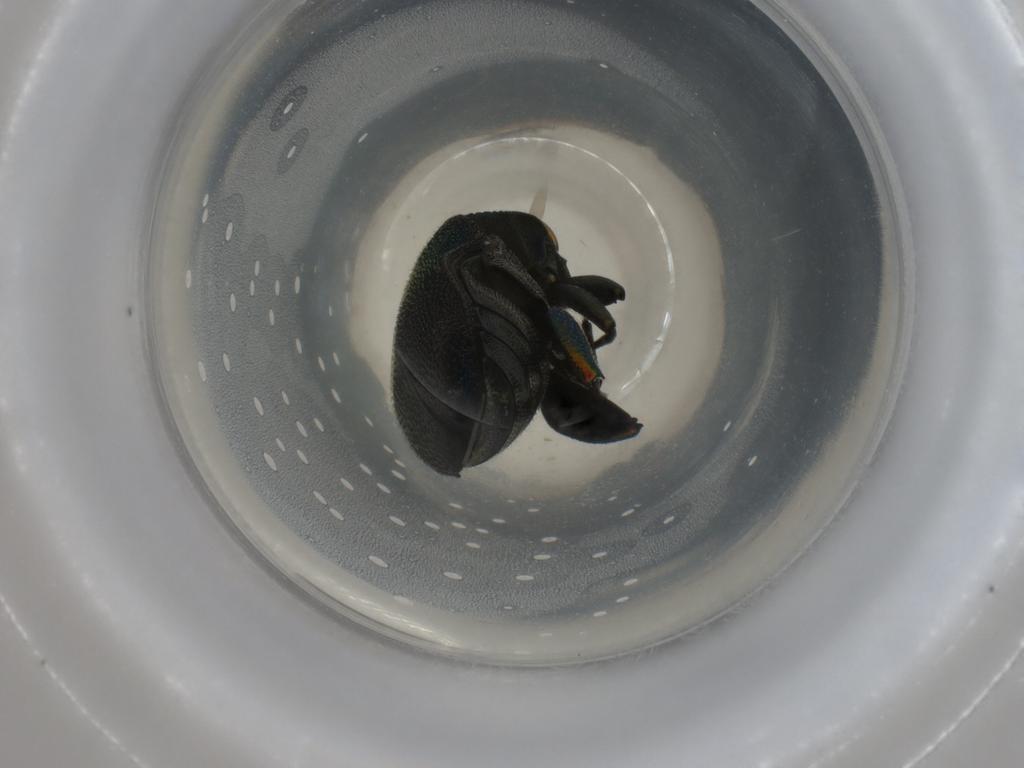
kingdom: Animalia
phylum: Arthropoda
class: Insecta
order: Coleoptera
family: Buprestidae
